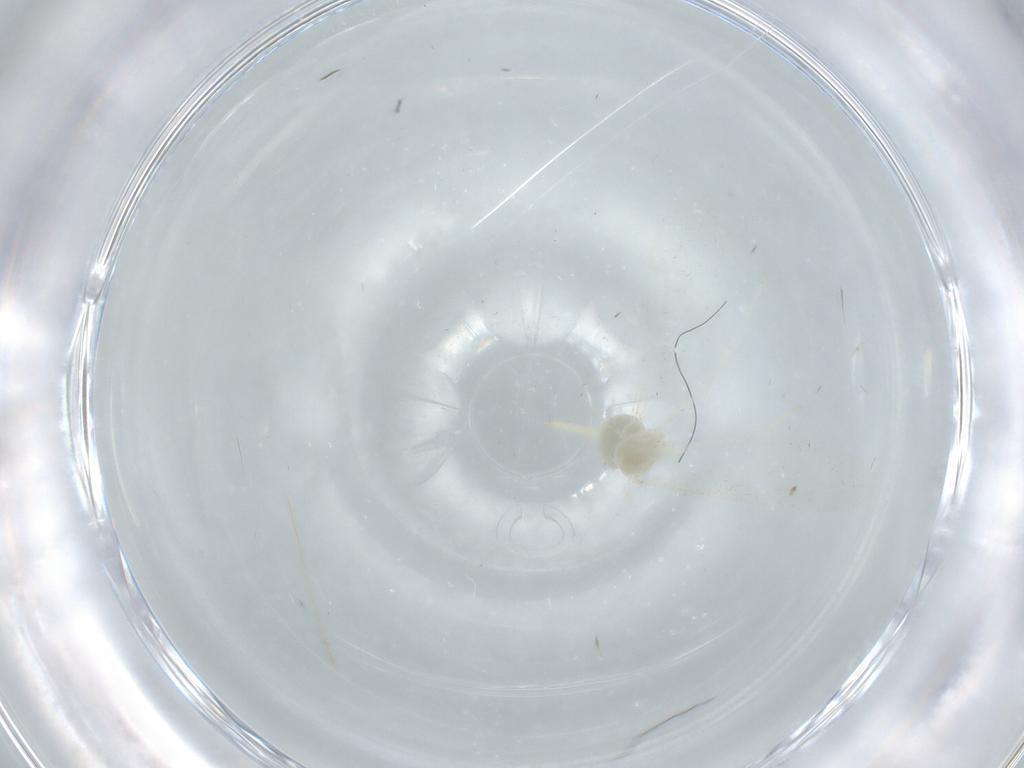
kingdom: Animalia
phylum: Arthropoda
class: Insecta
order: Diptera
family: Cecidomyiidae
